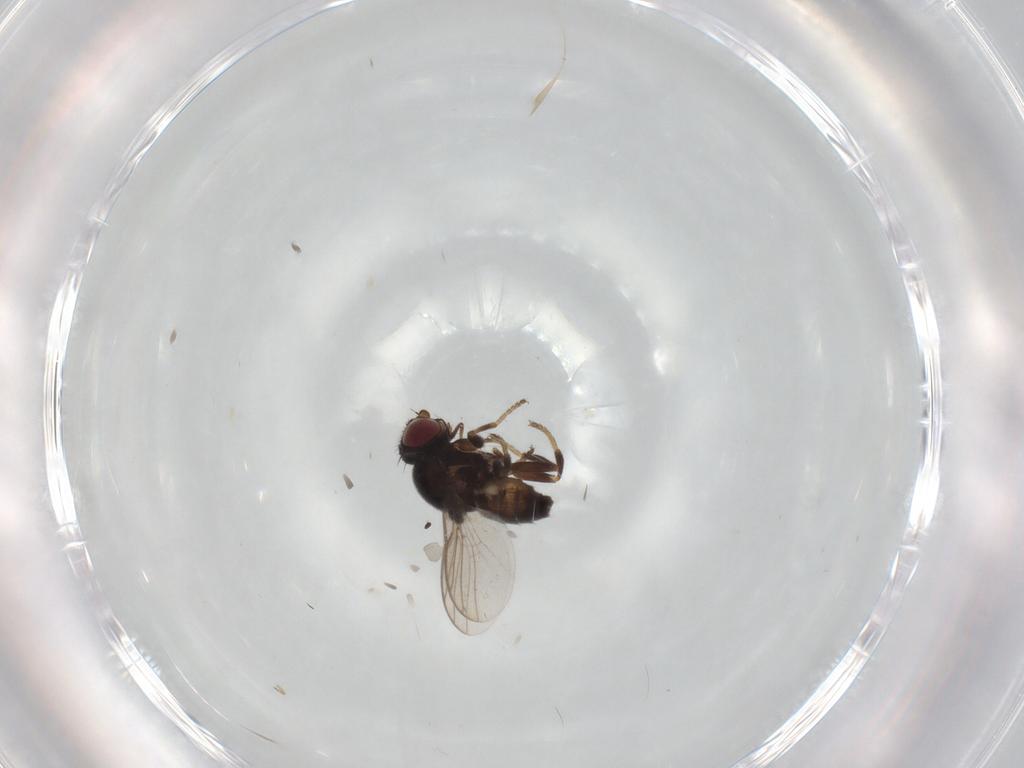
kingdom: Animalia
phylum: Arthropoda
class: Insecta
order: Diptera
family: Chloropidae
